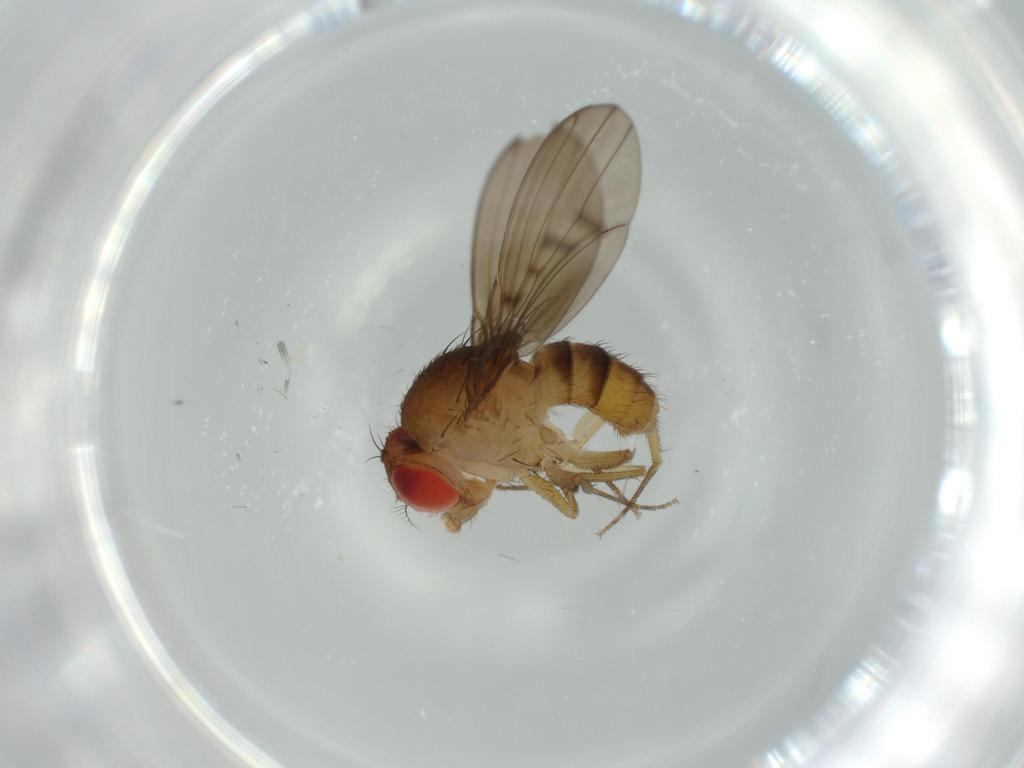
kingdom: Animalia
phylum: Arthropoda
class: Insecta
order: Diptera
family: Drosophilidae
